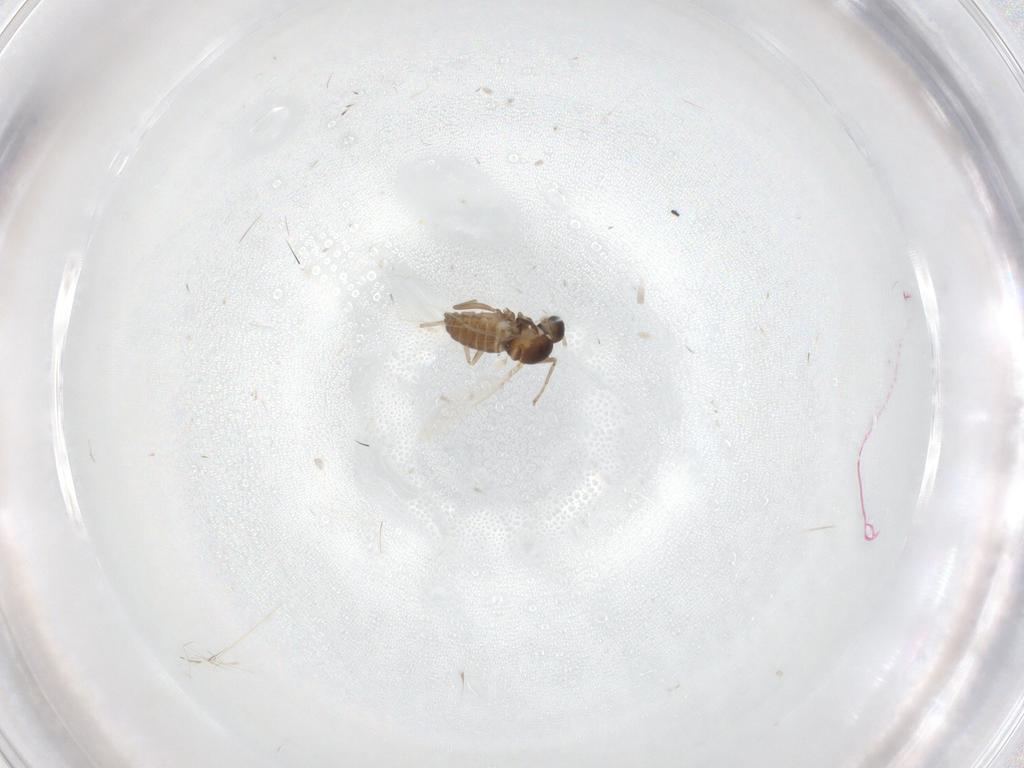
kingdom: Animalia
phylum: Arthropoda
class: Insecta
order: Diptera
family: Cecidomyiidae
